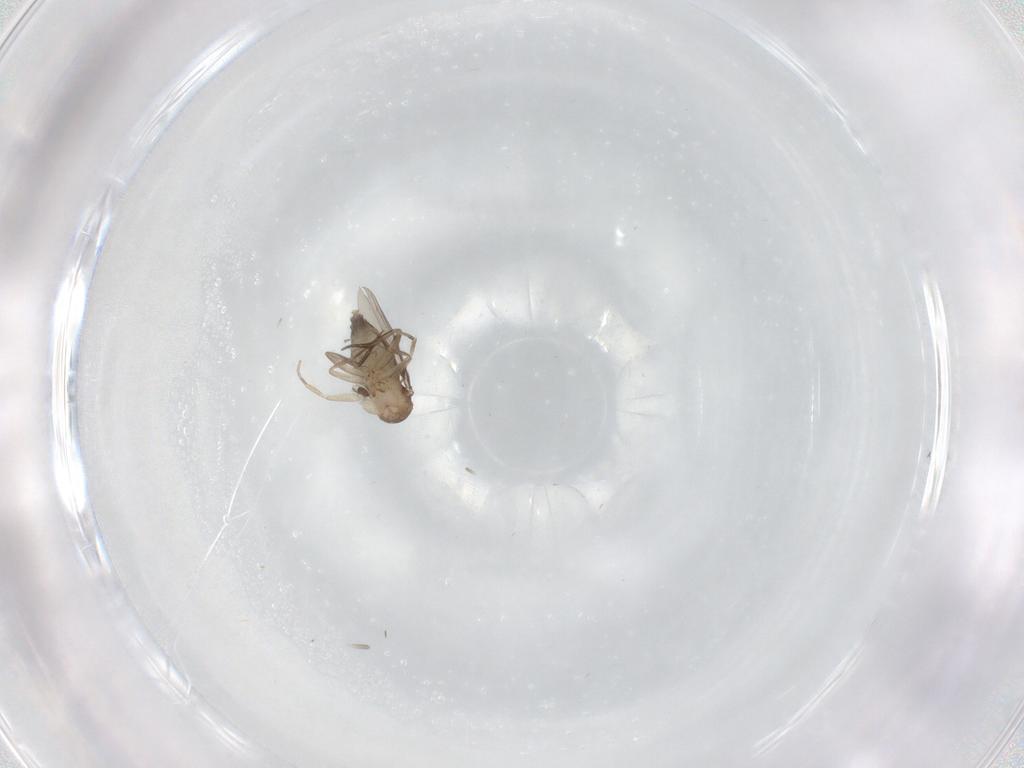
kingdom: Animalia
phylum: Arthropoda
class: Insecta
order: Diptera
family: Phoridae
